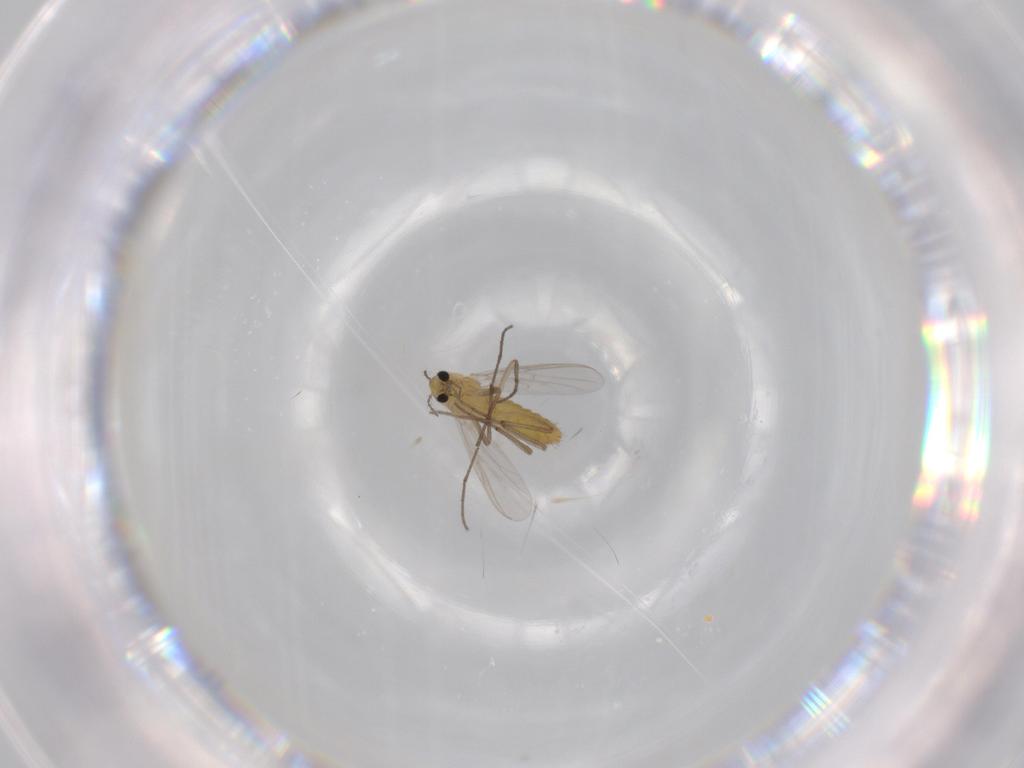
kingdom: Animalia
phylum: Arthropoda
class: Insecta
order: Diptera
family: Chironomidae
